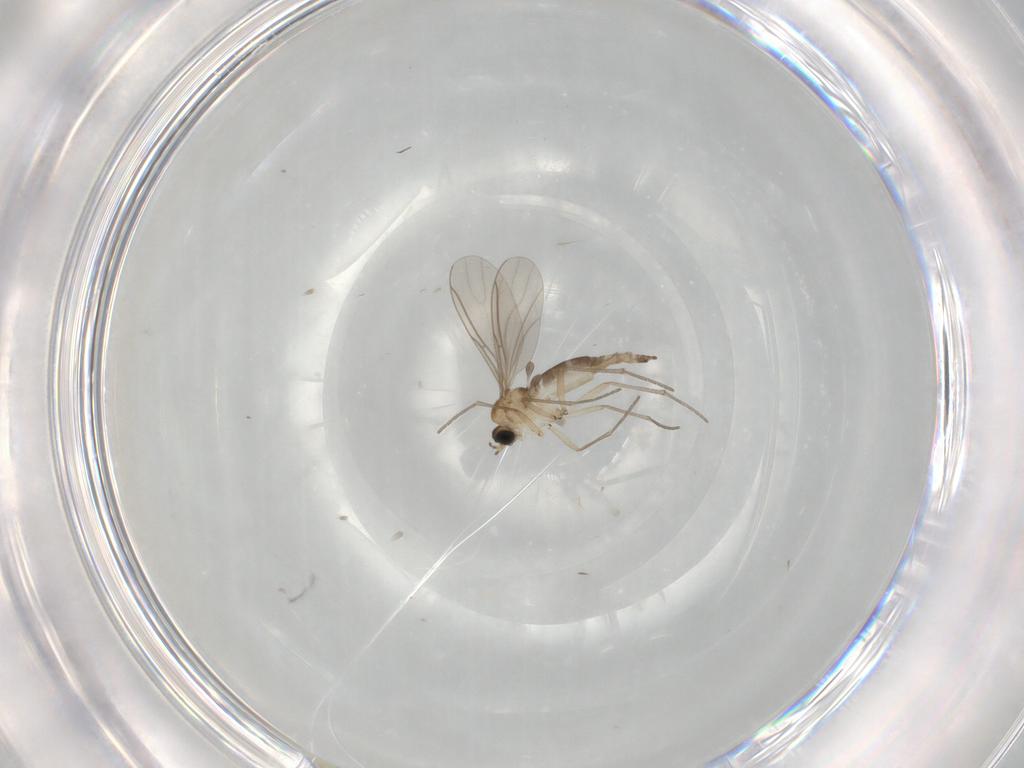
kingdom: Animalia
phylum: Arthropoda
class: Insecta
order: Diptera
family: Sciaridae
